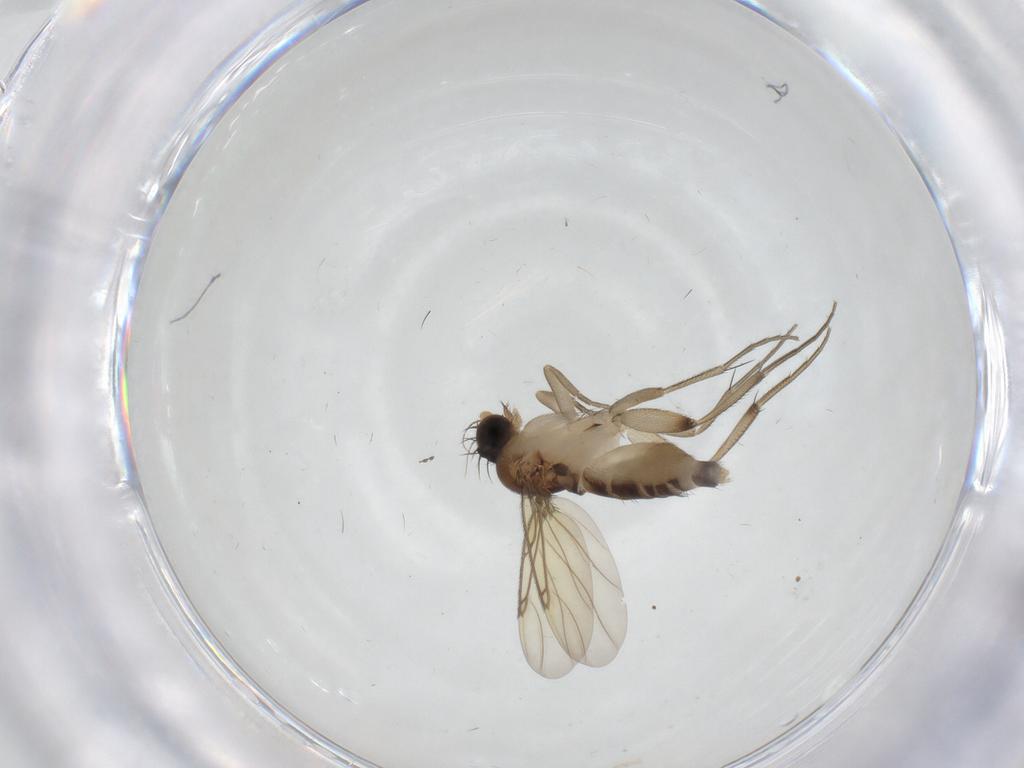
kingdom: Animalia
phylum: Arthropoda
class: Insecta
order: Diptera
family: Phoridae
